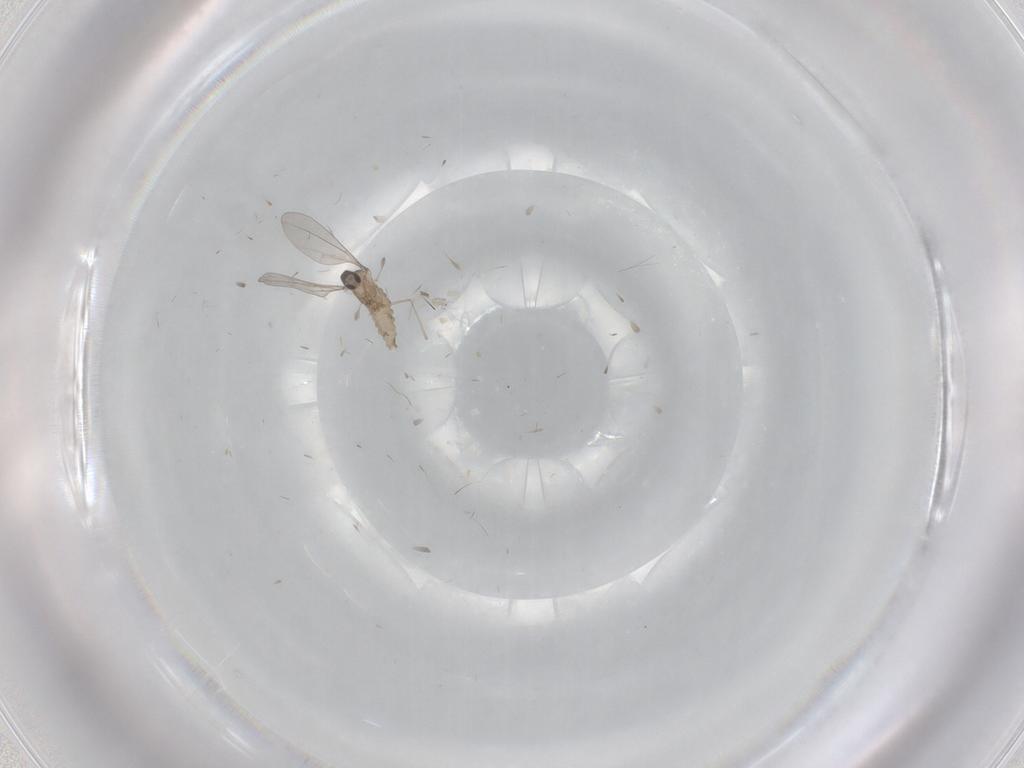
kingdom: Animalia
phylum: Arthropoda
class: Insecta
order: Diptera
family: Cecidomyiidae
